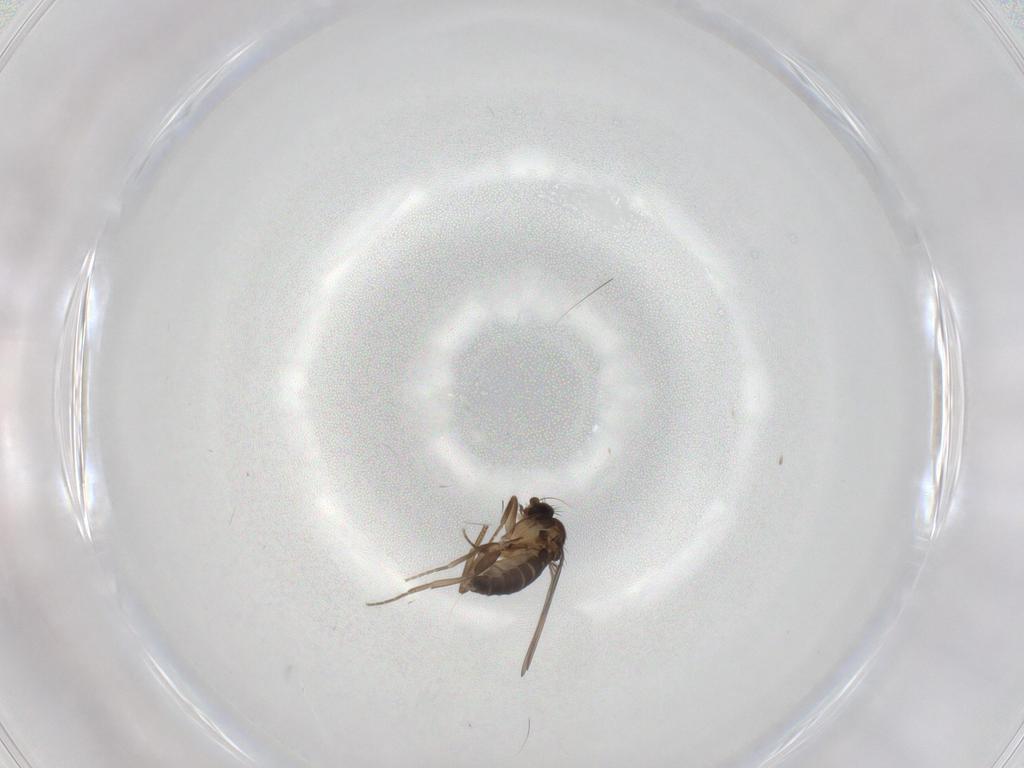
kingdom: Animalia
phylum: Arthropoda
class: Insecta
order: Diptera
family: Phoridae
